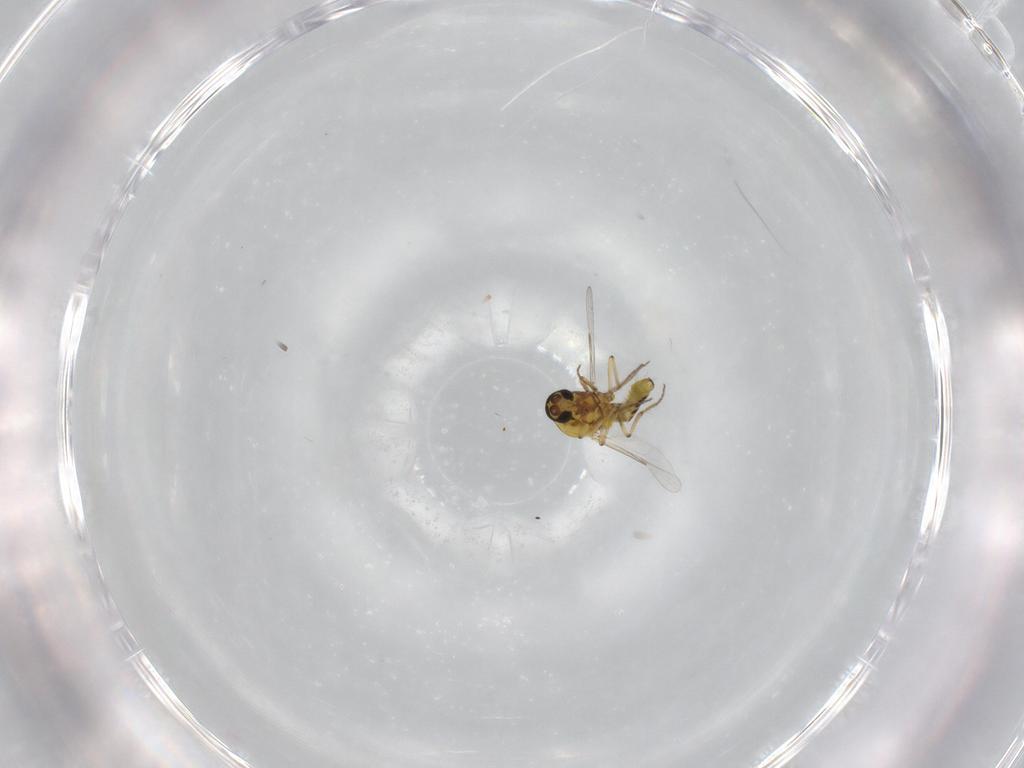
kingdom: Animalia
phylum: Arthropoda
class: Insecta
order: Diptera
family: Ceratopogonidae
